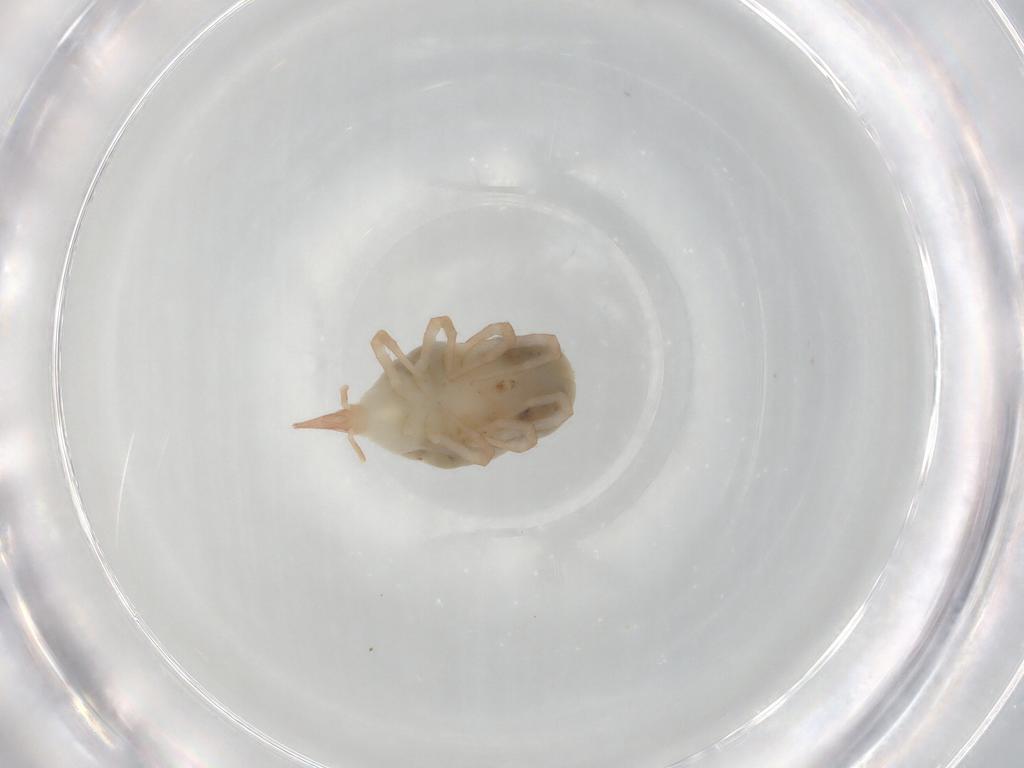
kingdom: Animalia
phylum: Arthropoda
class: Arachnida
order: Trombidiformes
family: Bdellidae
